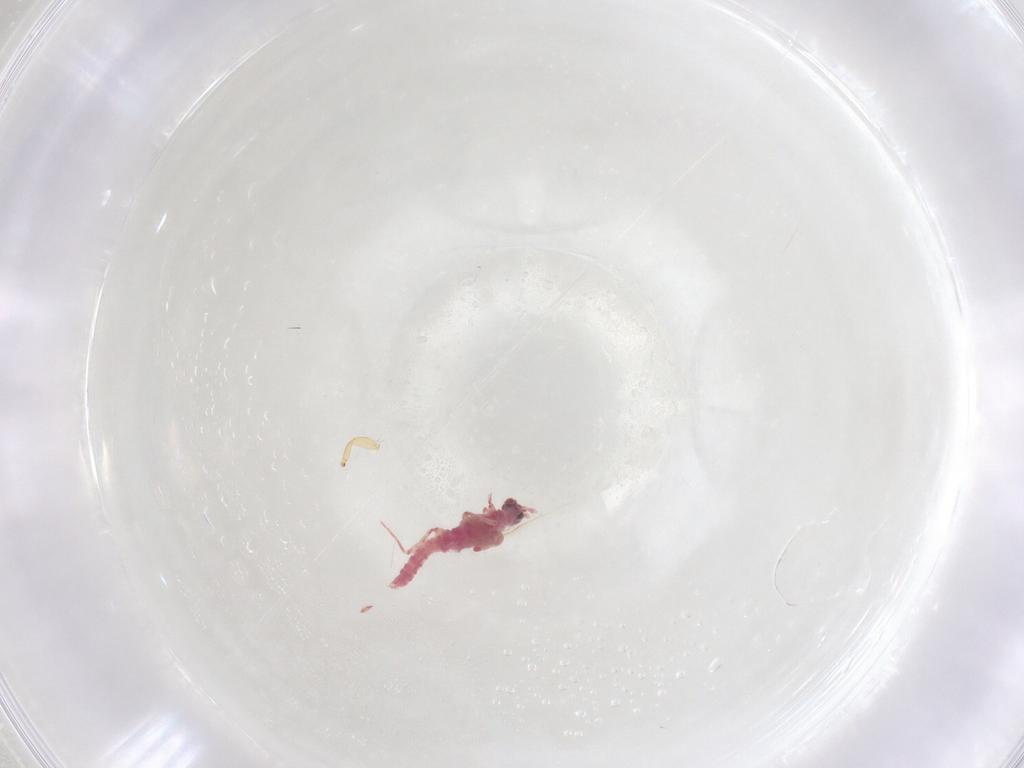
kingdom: Animalia
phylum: Arthropoda
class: Insecta
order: Thysanoptera
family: Phlaeothripidae
